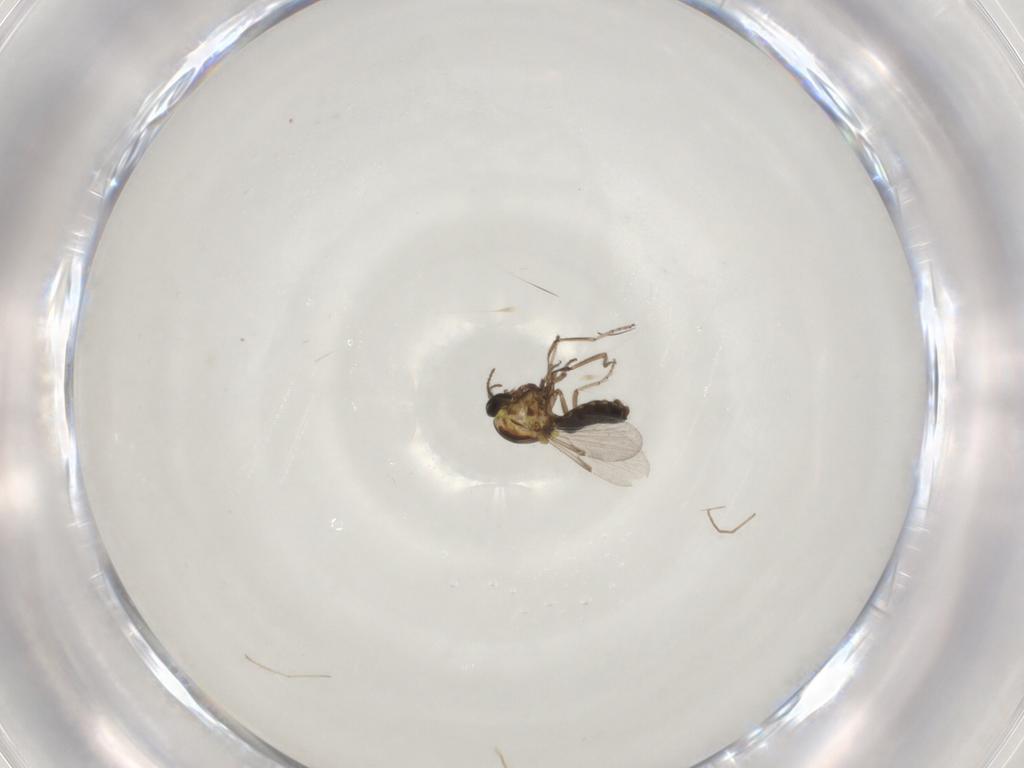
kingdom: Animalia
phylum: Arthropoda
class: Insecta
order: Diptera
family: Ceratopogonidae
